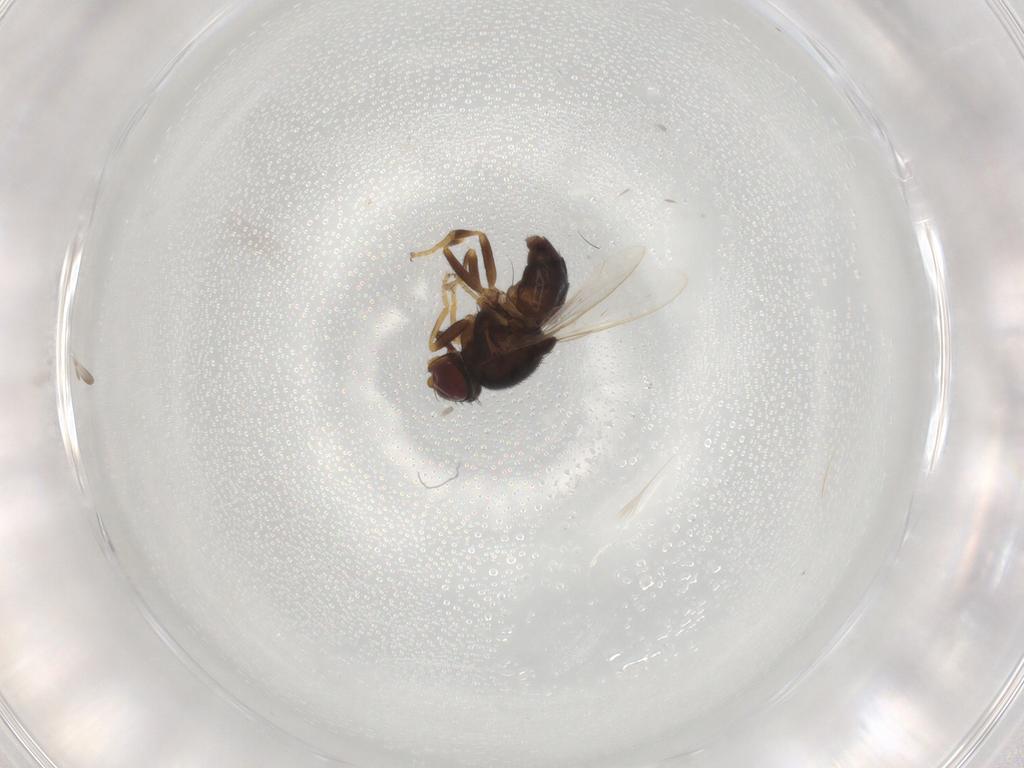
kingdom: Animalia
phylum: Arthropoda
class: Insecta
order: Diptera
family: Chloropidae
